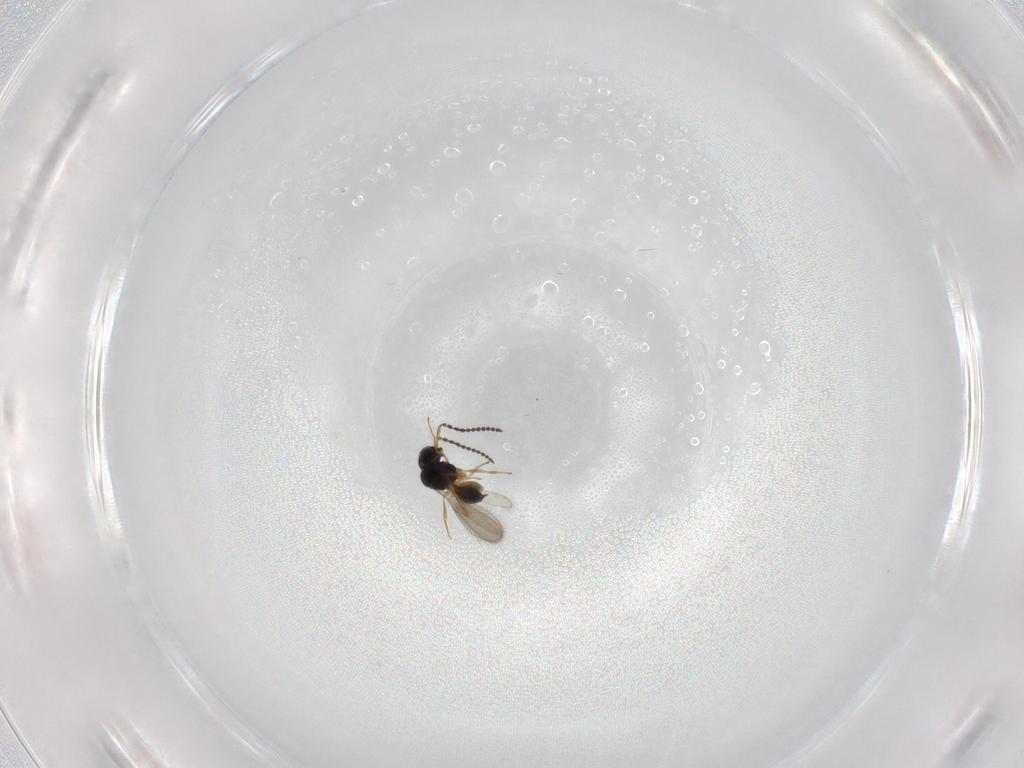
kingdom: Animalia
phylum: Arthropoda
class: Insecta
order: Hymenoptera
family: Scelionidae
